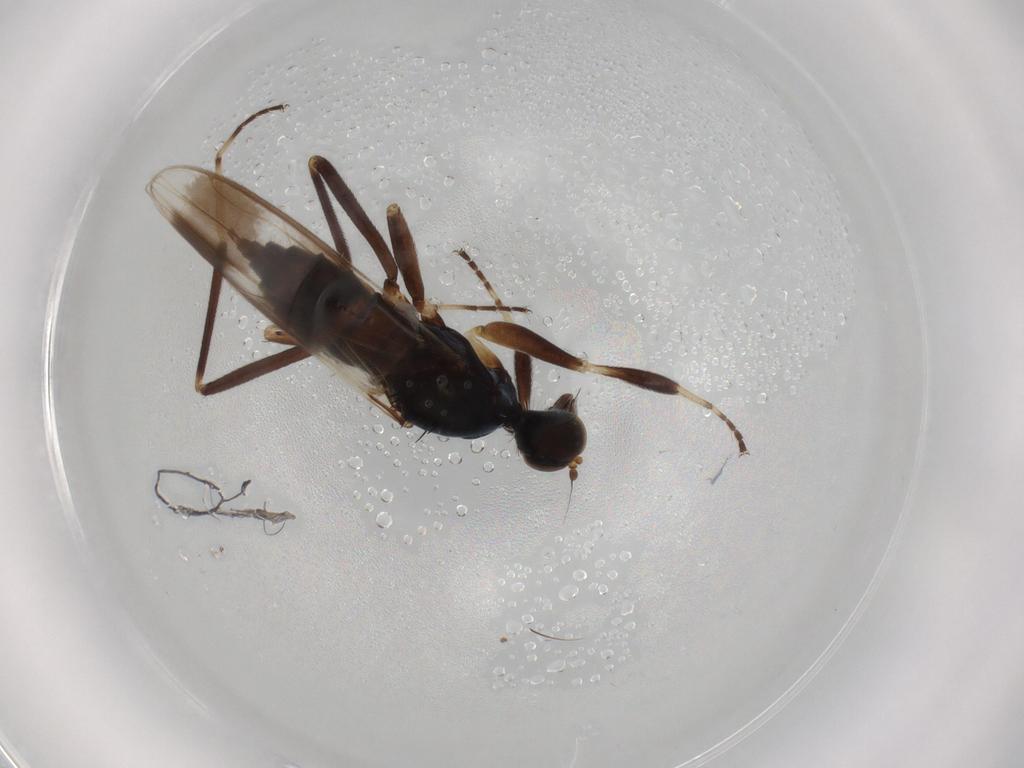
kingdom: Animalia
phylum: Arthropoda
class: Insecta
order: Diptera
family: Hybotidae
